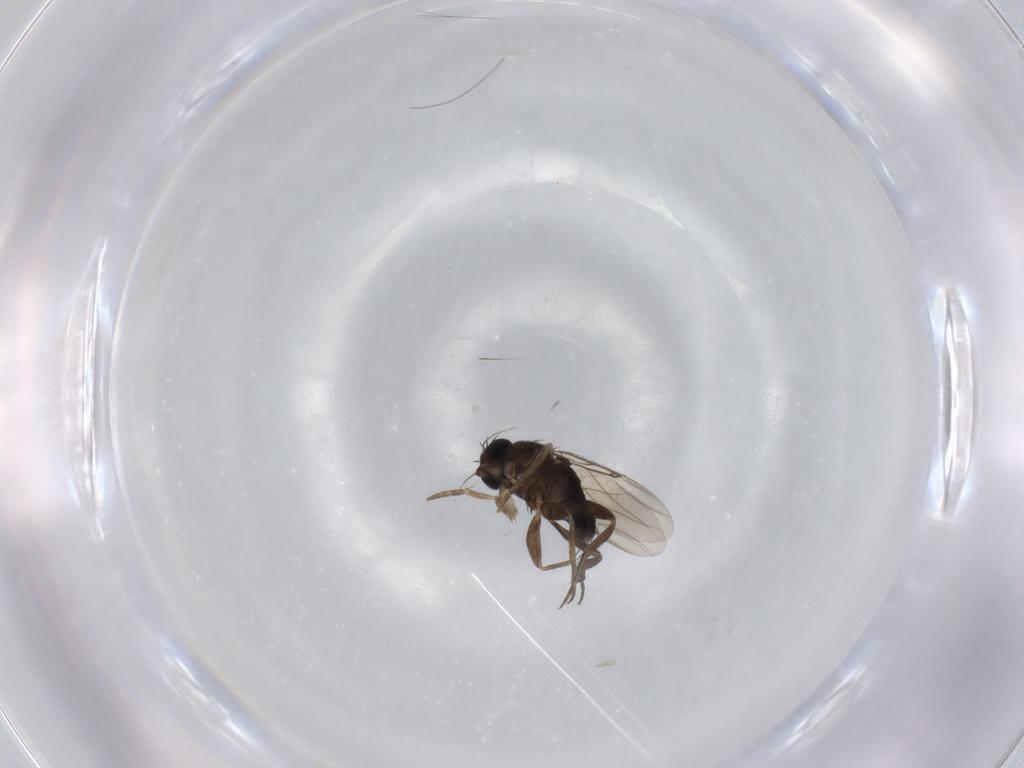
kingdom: Animalia
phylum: Arthropoda
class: Insecta
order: Diptera
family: Phoridae
